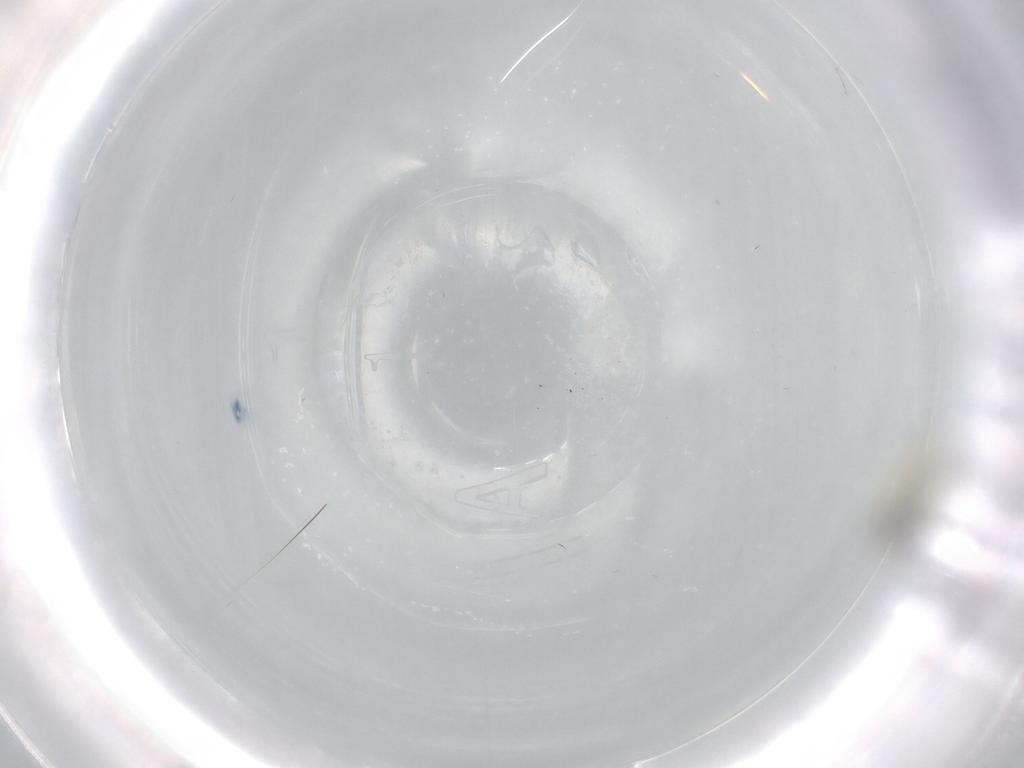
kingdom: Animalia
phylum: Arthropoda
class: Insecta
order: Diptera
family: Cecidomyiidae
